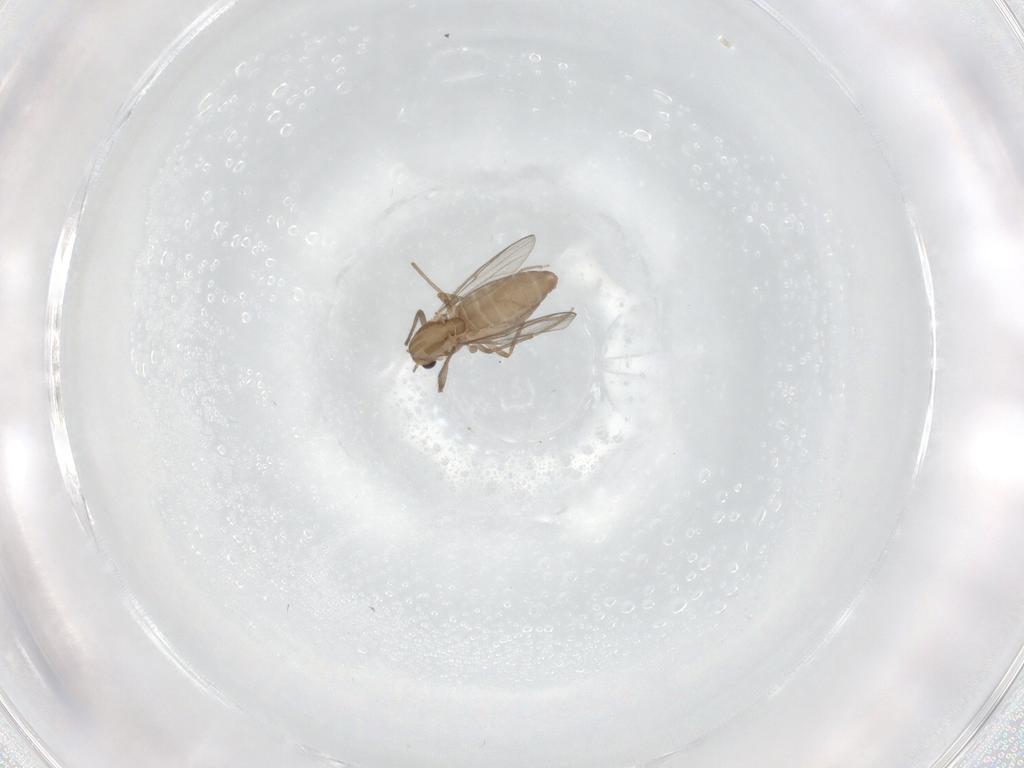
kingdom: Animalia
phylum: Arthropoda
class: Insecta
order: Diptera
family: Chironomidae
